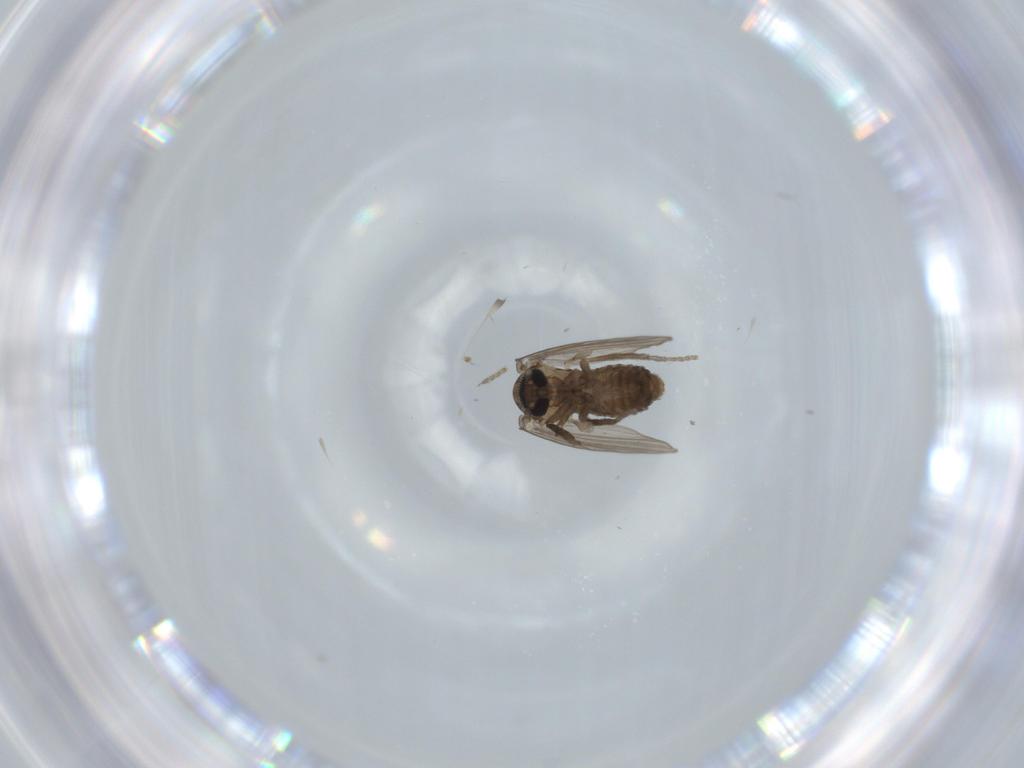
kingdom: Animalia
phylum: Arthropoda
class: Insecta
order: Diptera
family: Psychodidae
